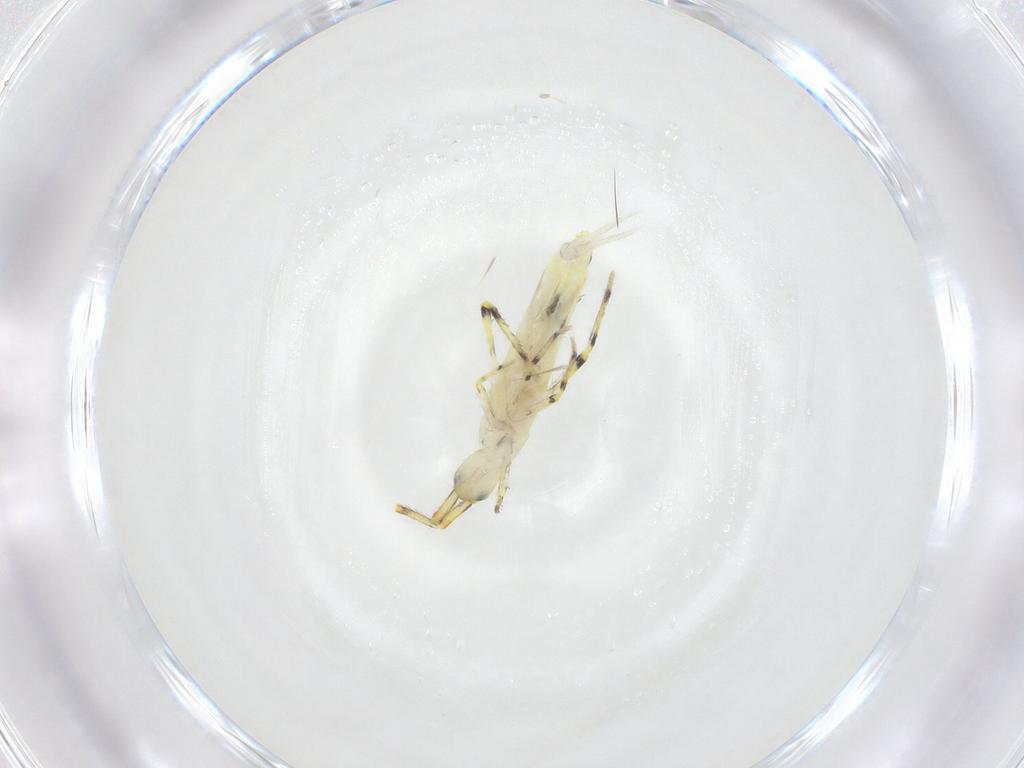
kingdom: Animalia
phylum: Arthropoda
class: Collembola
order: Entomobryomorpha
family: Entomobryidae
